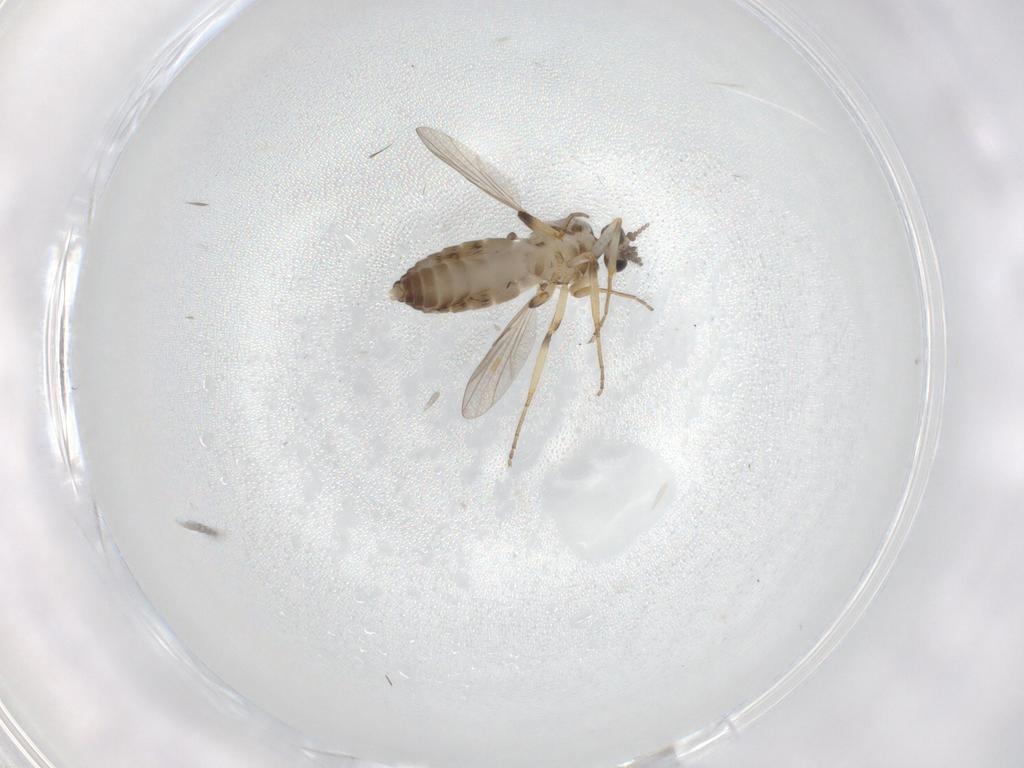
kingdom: Animalia
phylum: Arthropoda
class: Insecta
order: Diptera
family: Ceratopogonidae
